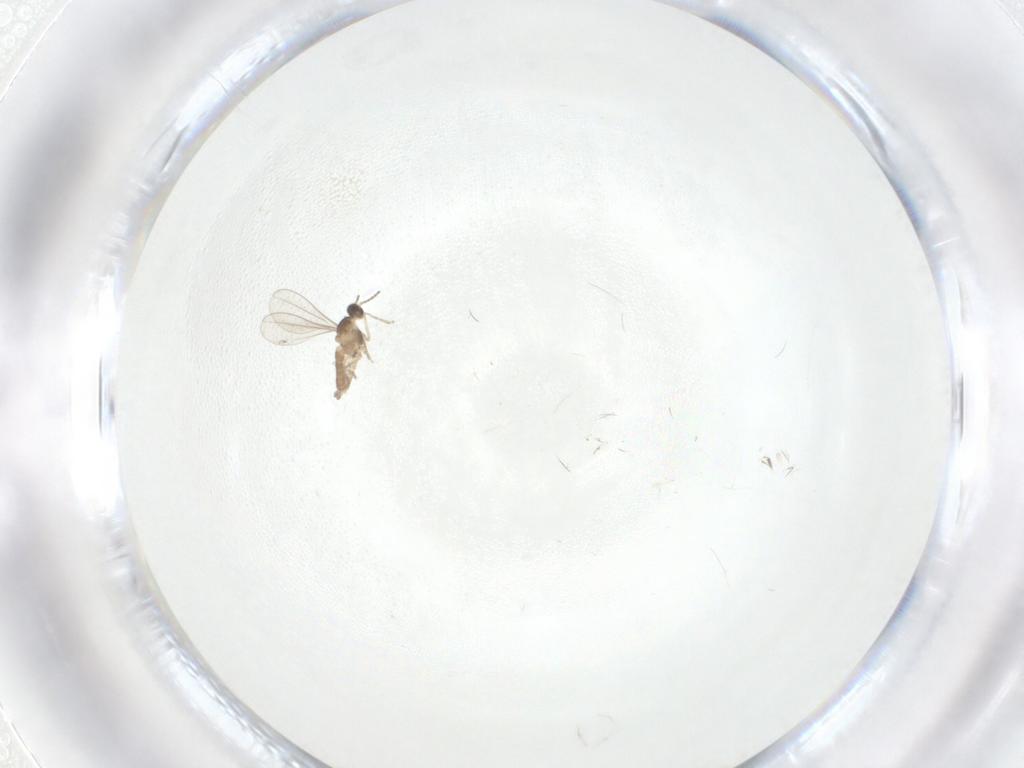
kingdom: Animalia
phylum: Arthropoda
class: Insecta
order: Diptera
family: Cecidomyiidae
